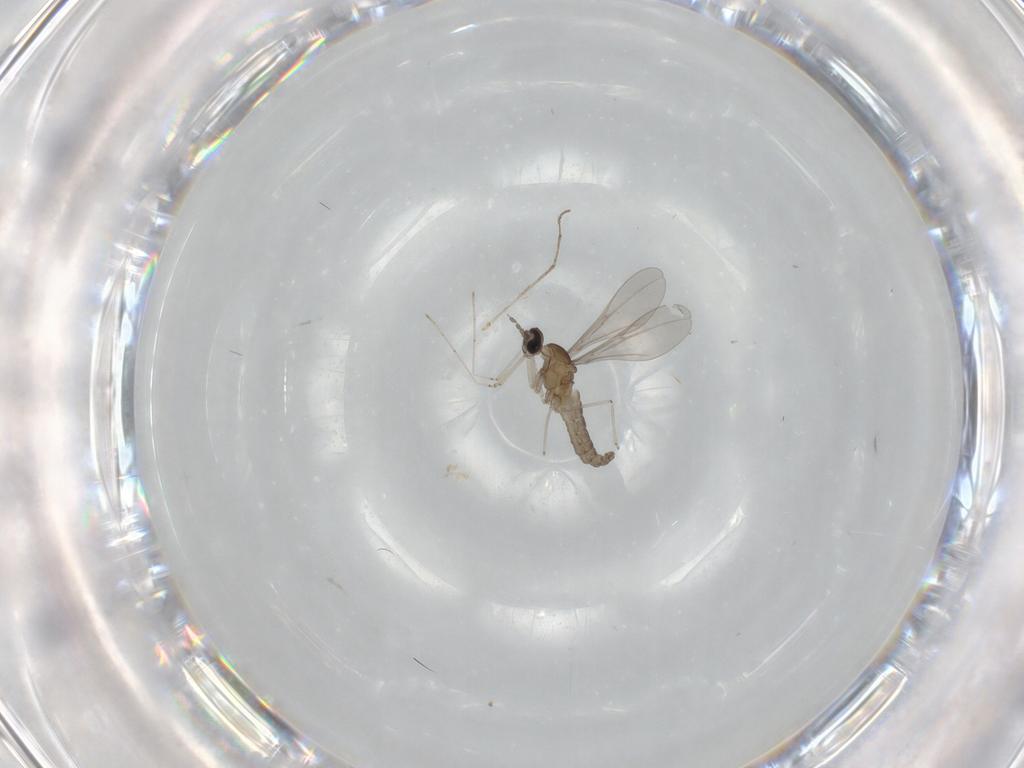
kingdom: Animalia
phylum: Arthropoda
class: Insecta
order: Diptera
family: Cecidomyiidae
